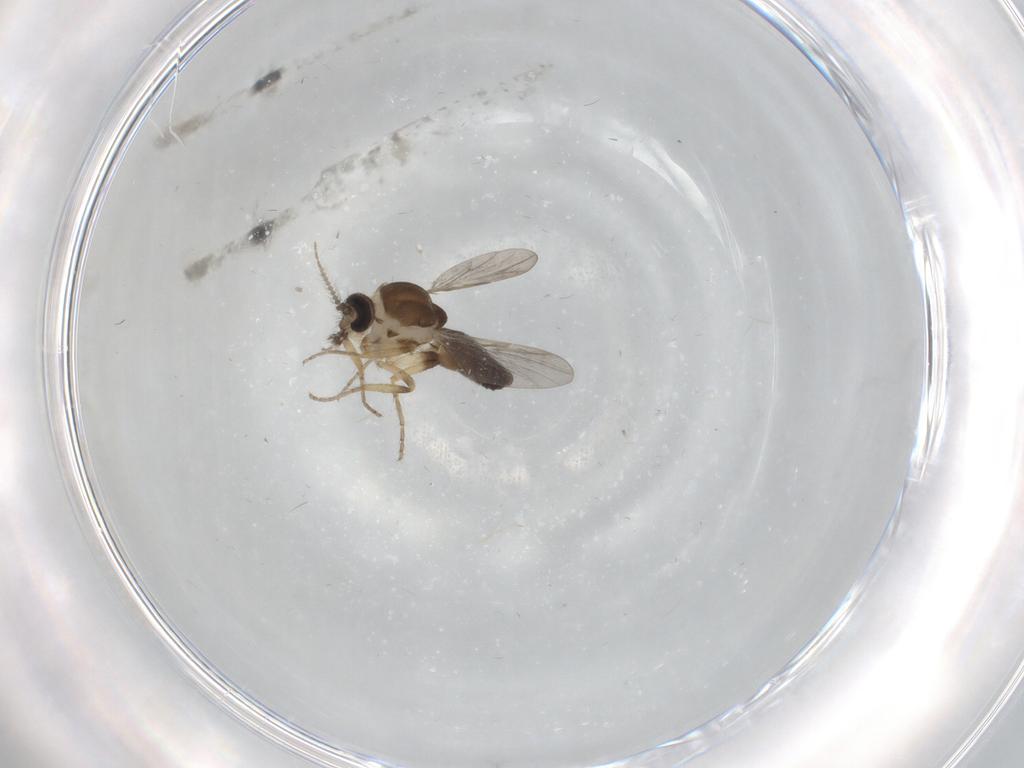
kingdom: Animalia
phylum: Arthropoda
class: Insecta
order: Diptera
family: Ceratopogonidae
